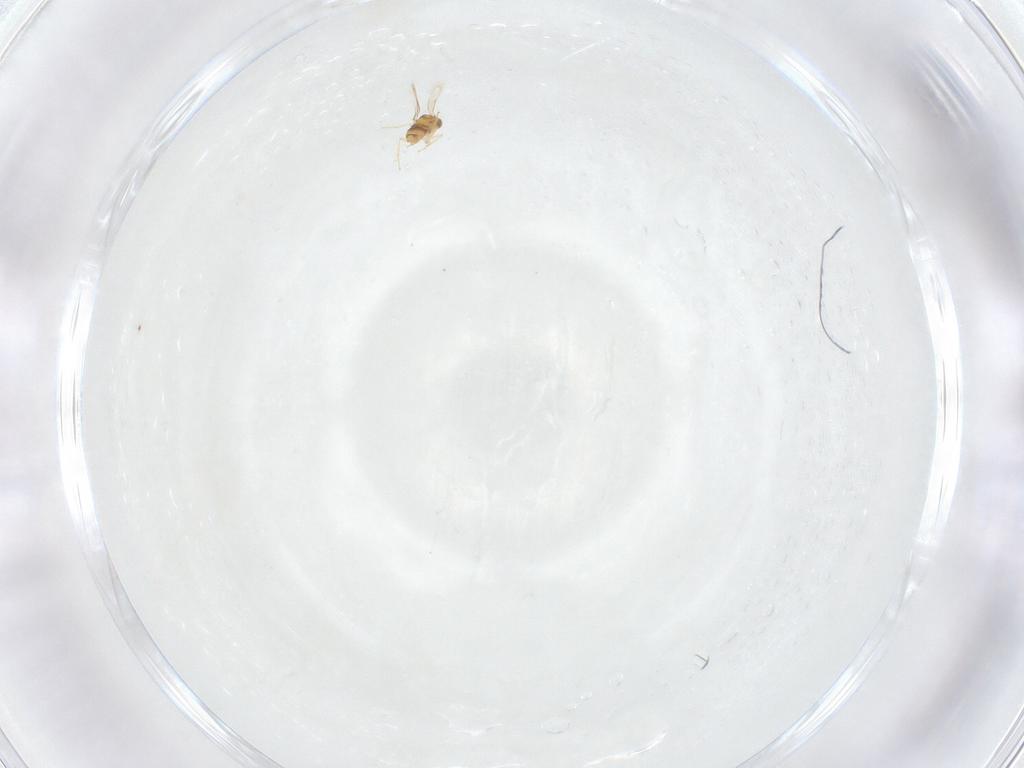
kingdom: Animalia
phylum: Arthropoda
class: Insecta
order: Hymenoptera
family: Aphelinidae
